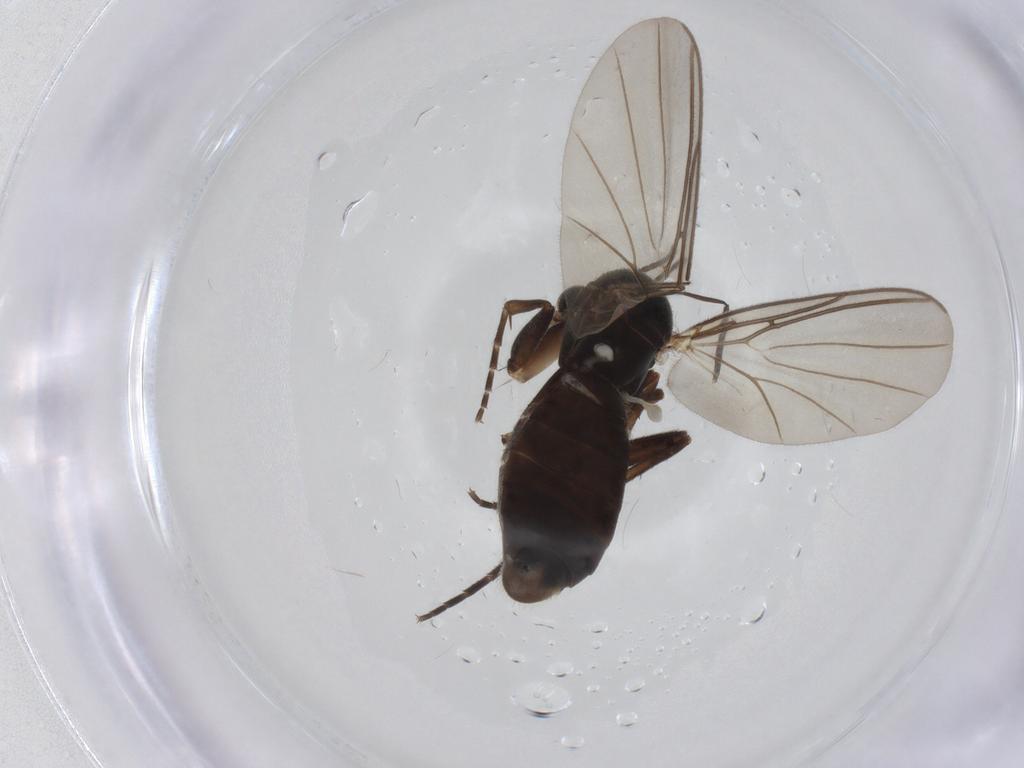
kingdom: Animalia
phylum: Arthropoda
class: Insecta
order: Diptera
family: Mycetophilidae
